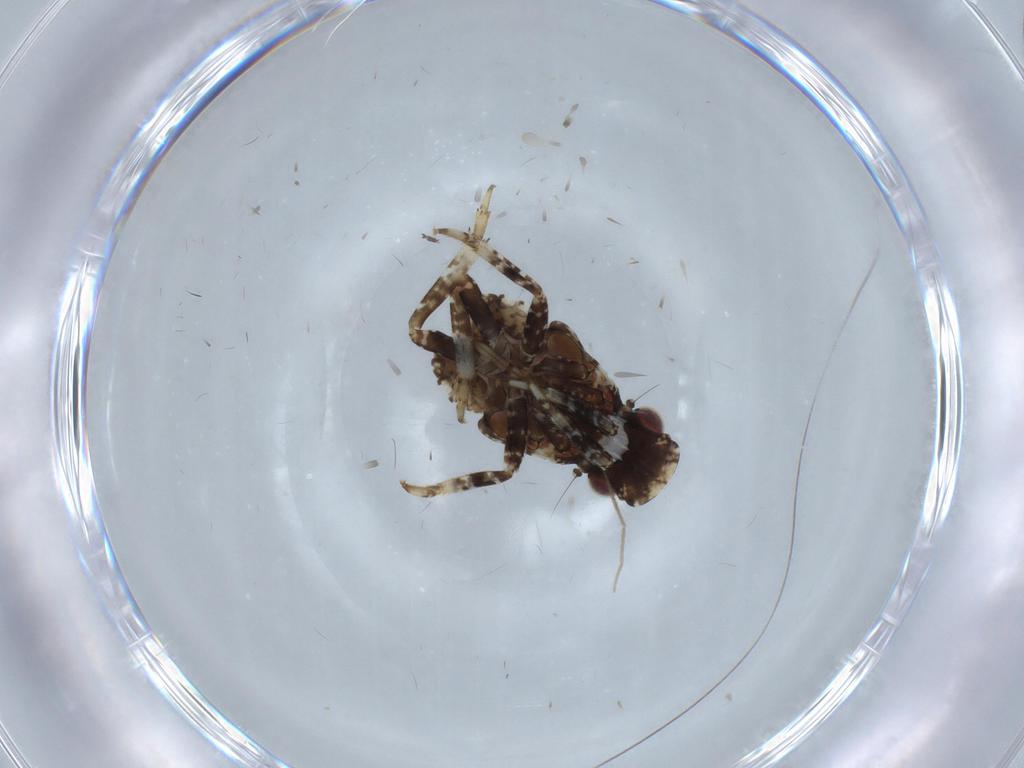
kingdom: Animalia
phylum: Arthropoda
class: Insecta
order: Hemiptera
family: Fulgoridae
